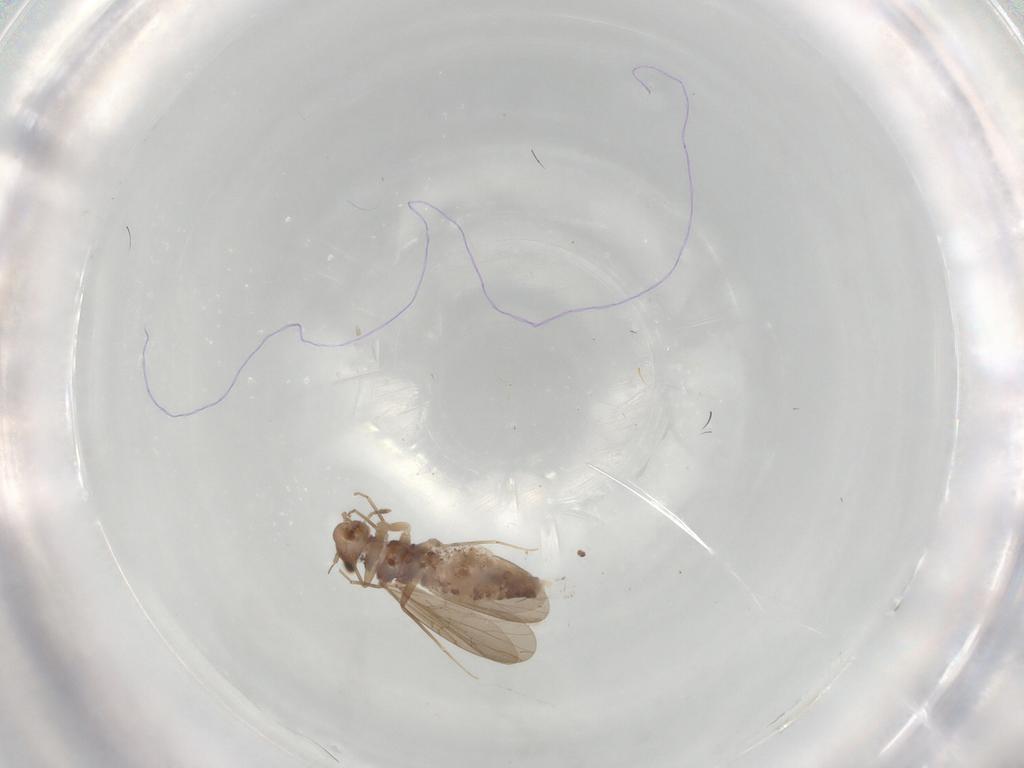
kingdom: Animalia
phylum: Arthropoda
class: Insecta
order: Psocodea
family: Lepidopsocidae
